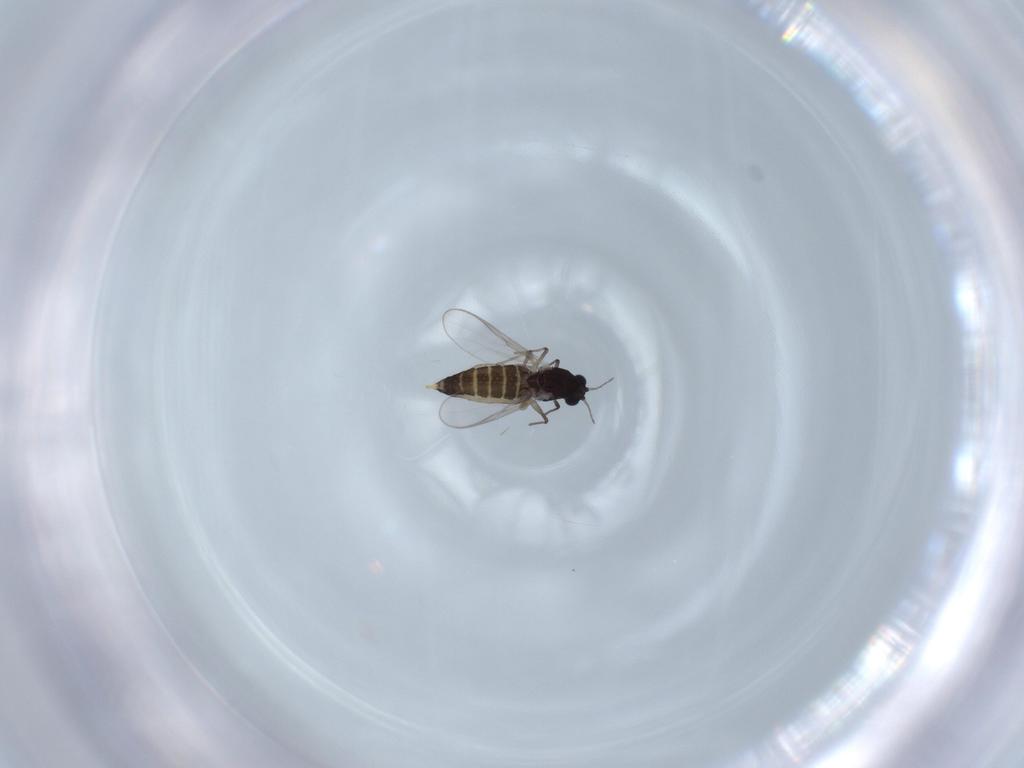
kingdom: Animalia
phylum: Arthropoda
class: Insecta
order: Diptera
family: Chironomidae
